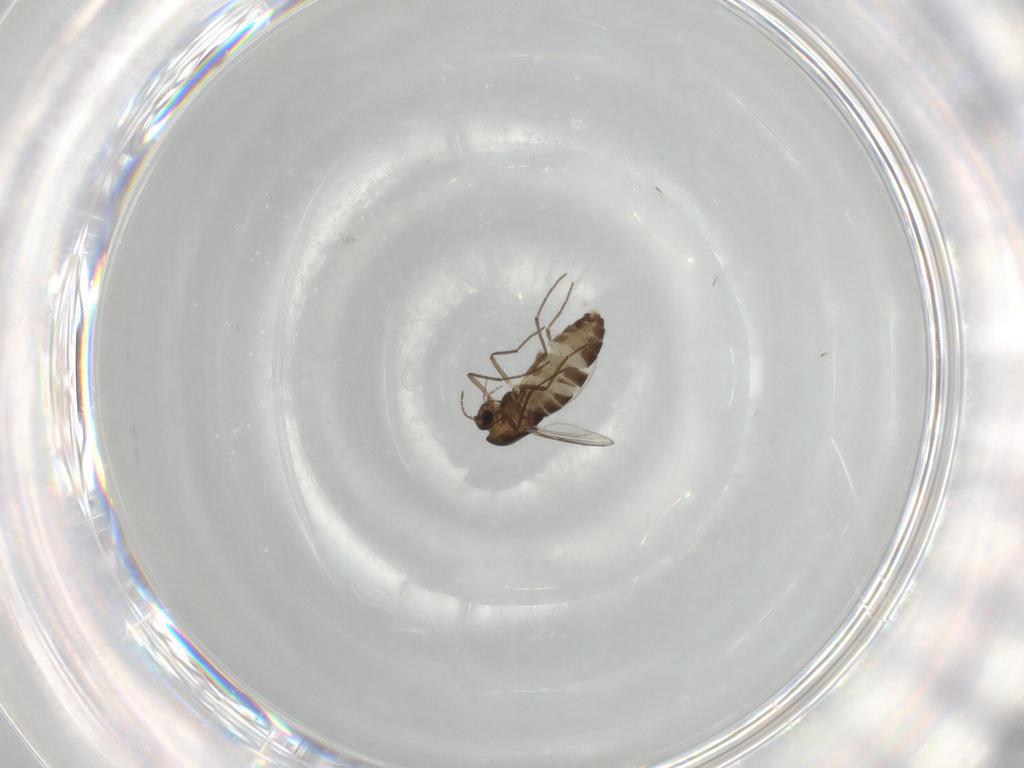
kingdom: Animalia
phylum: Arthropoda
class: Insecta
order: Diptera
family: Chironomidae
